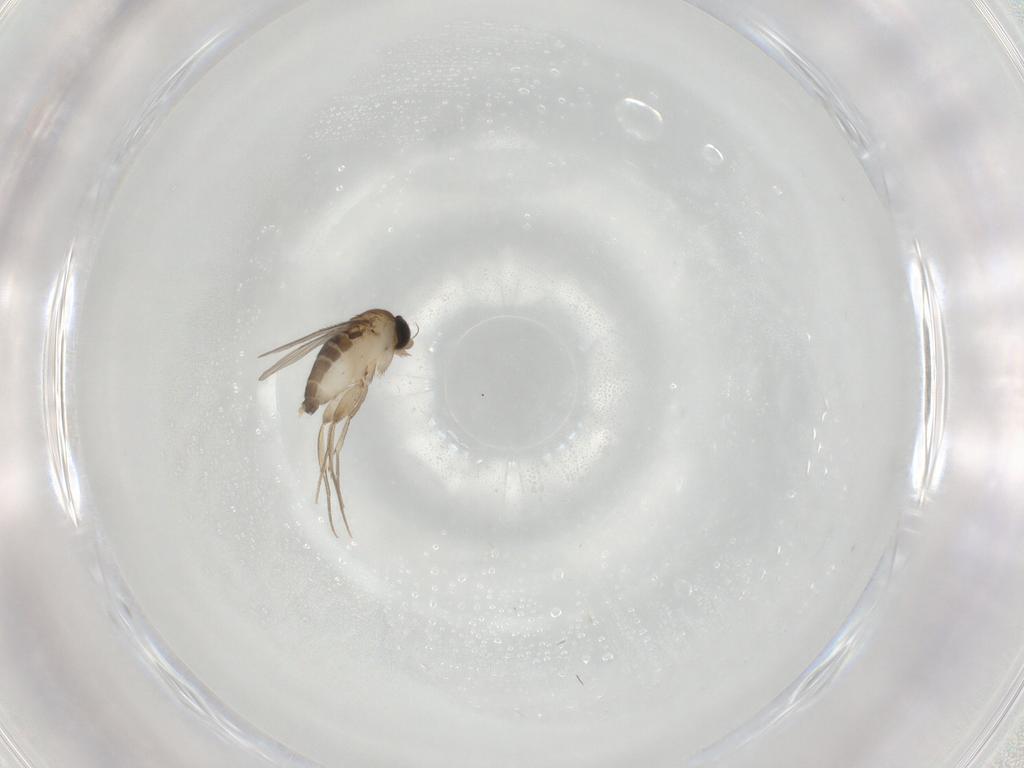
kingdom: Animalia
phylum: Arthropoda
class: Insecta
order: Diptera
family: Phoridae
